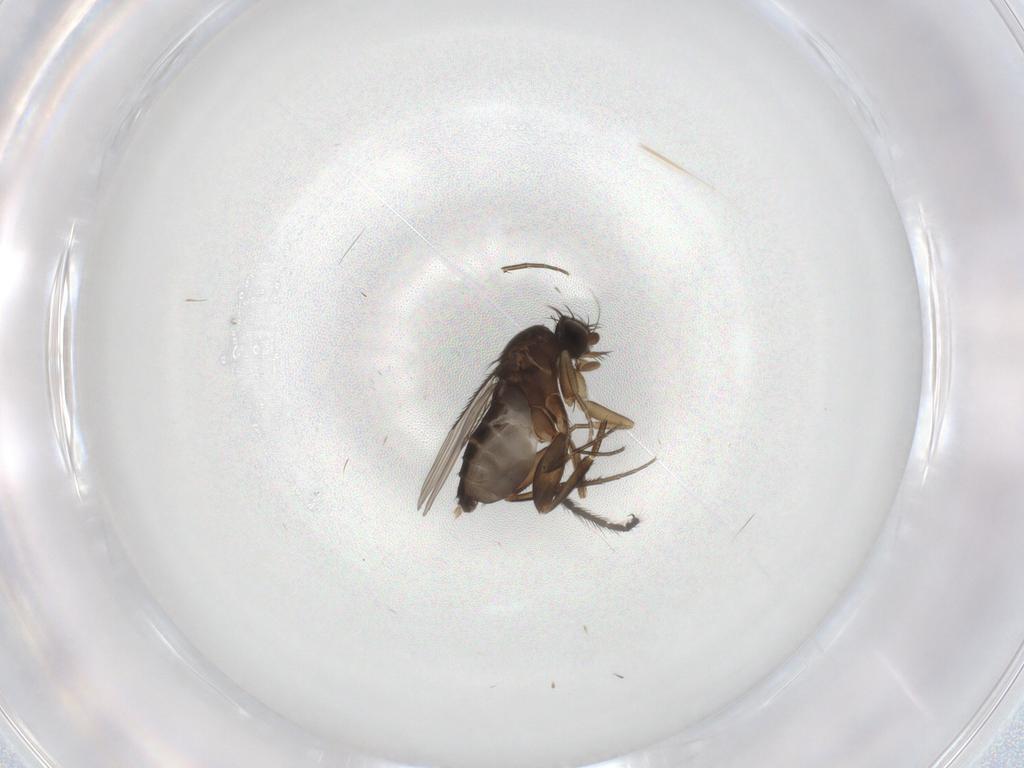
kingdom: Animalia
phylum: Arthropoda
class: Insecta
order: Diptera
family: Phoridae
